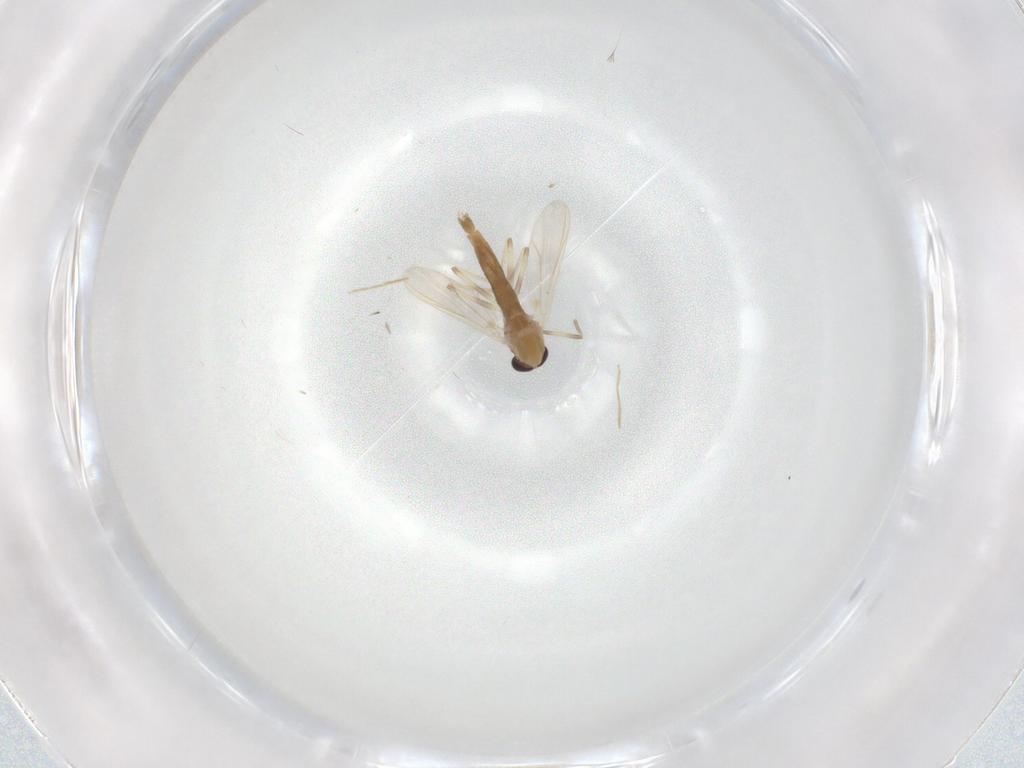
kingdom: Animalia
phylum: Arthropoda
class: Insecta
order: Diptera
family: Chironomidae
